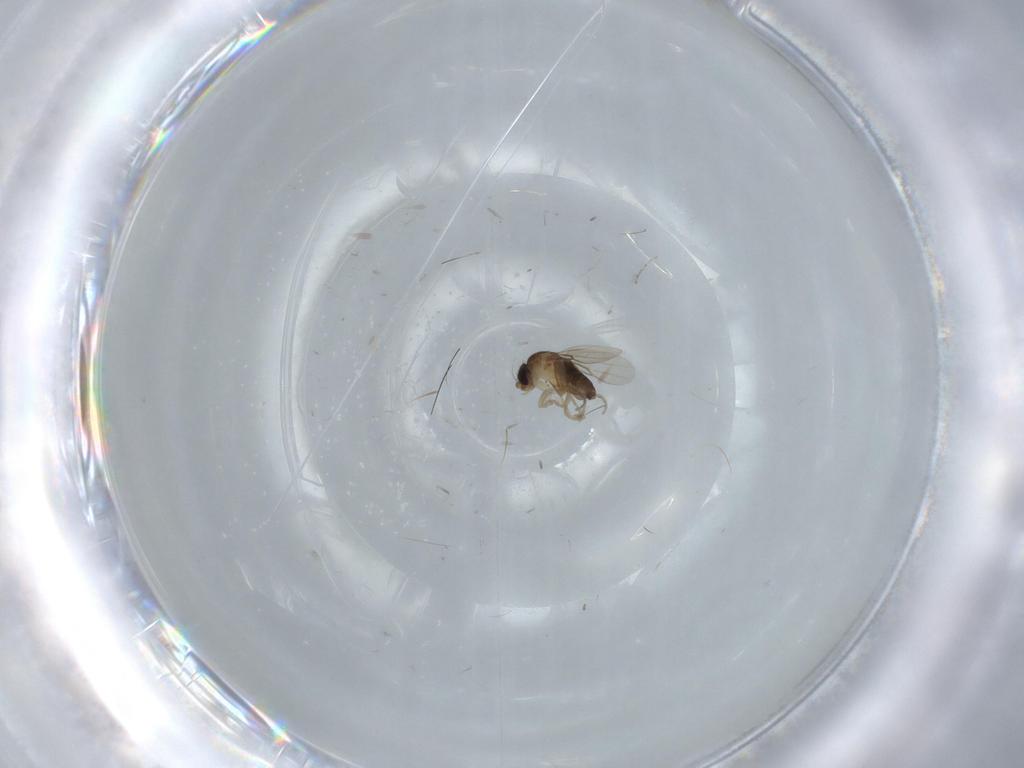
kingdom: Animalia
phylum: Arthropoda
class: Insecta
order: Diptera
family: Phoridae
